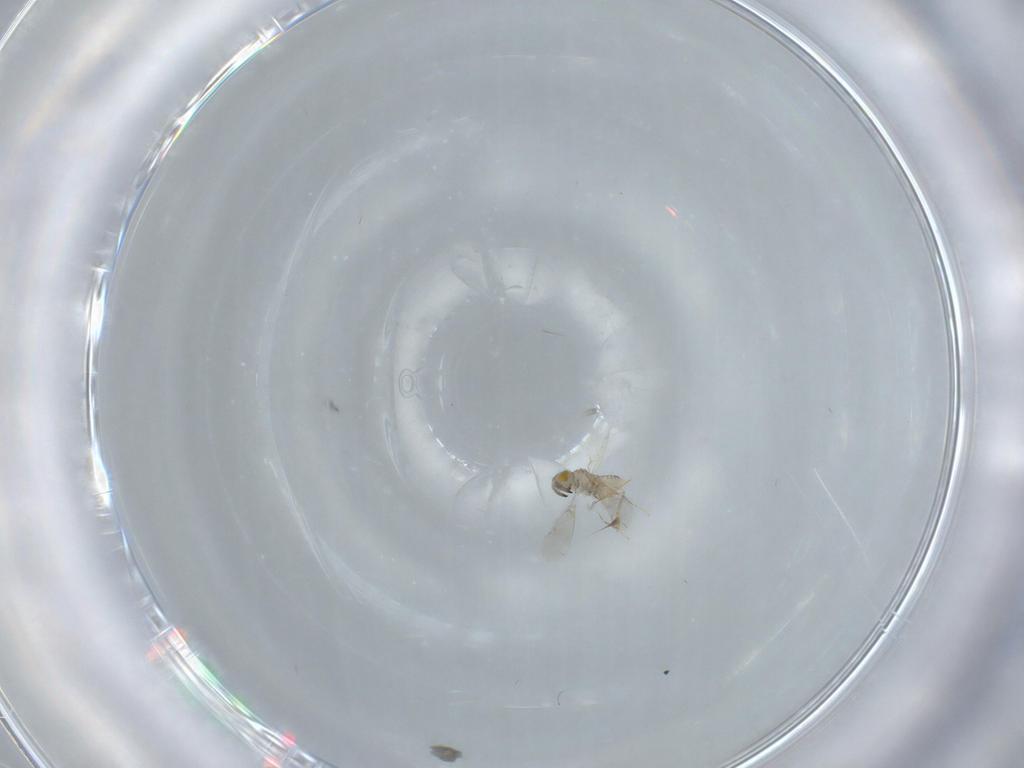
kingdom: Animalia
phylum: Arthropoda
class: Insecta
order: Hymenoptera
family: Aphelinidae
